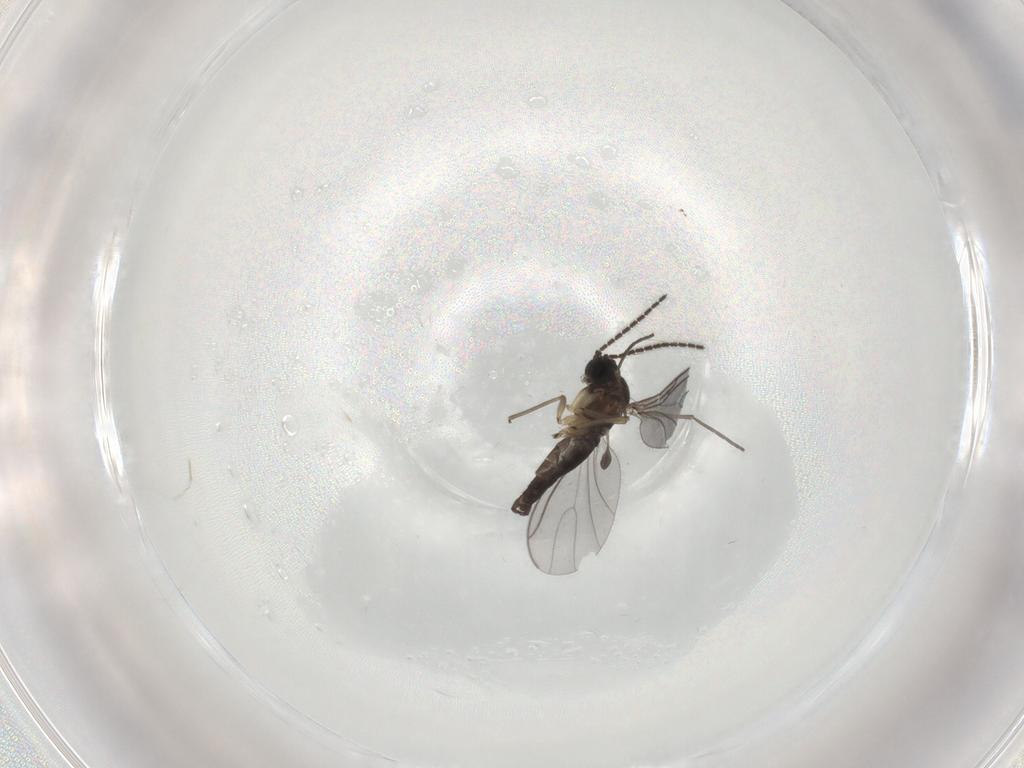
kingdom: Animalia
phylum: Arthropoda
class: Insecta
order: Diptera
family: Sciaridae
